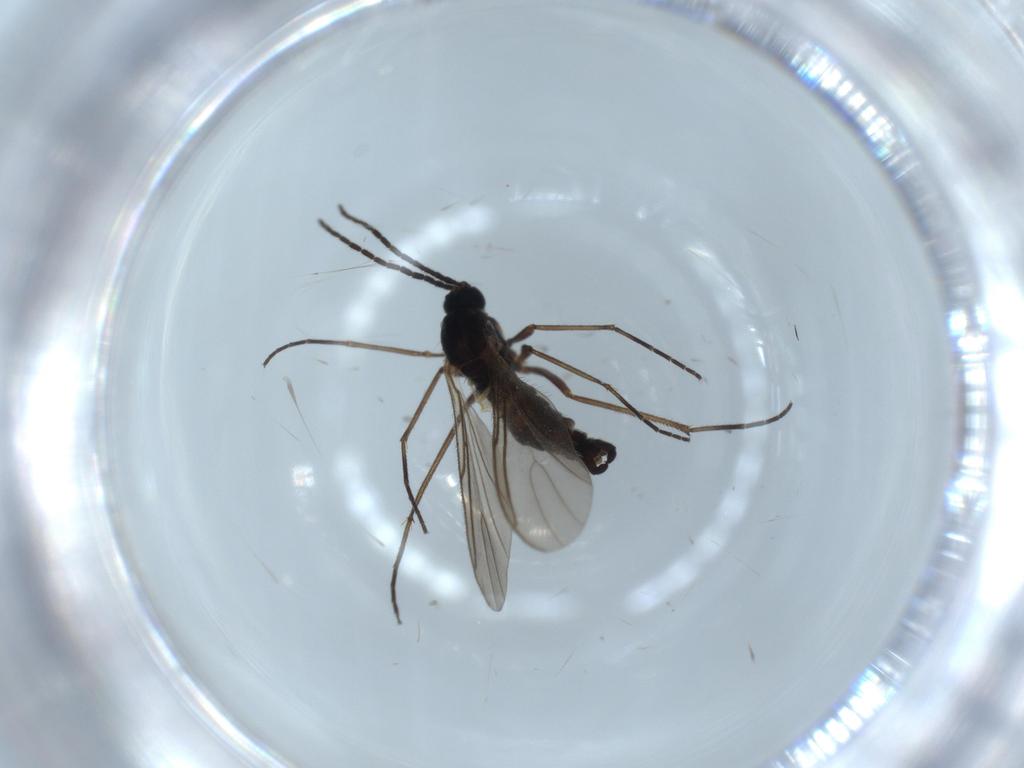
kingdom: Animalia
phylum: Arthropoda
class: Insecta
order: Diptera
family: Sciaridae
